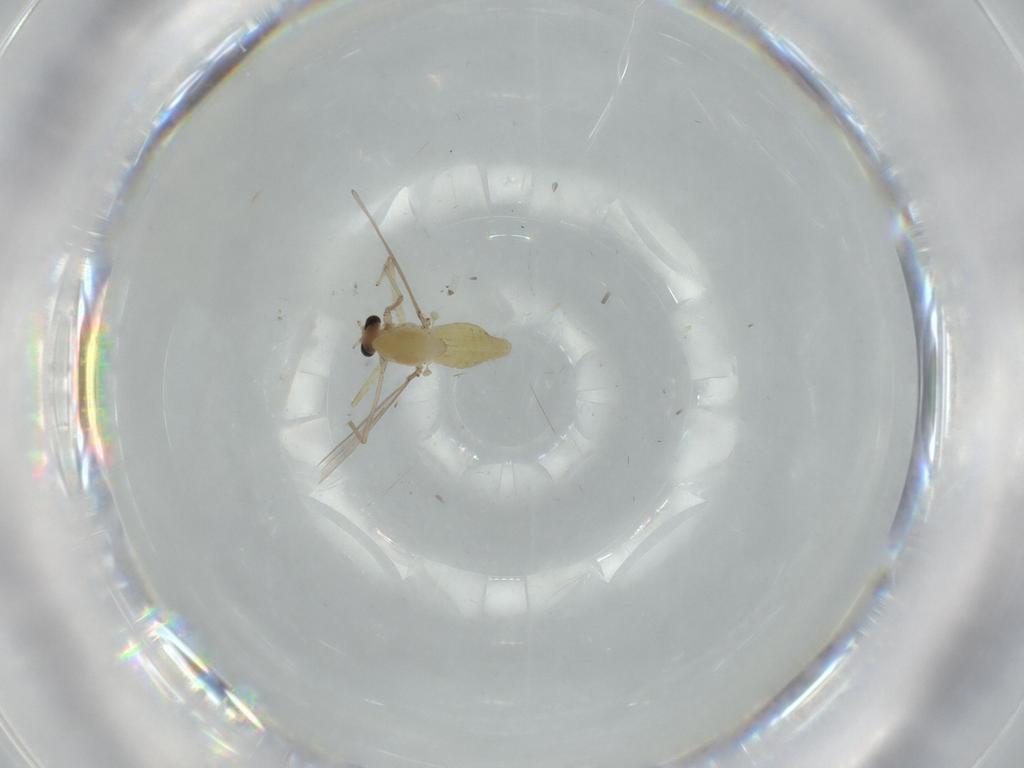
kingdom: Animalia
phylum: Arthropoda
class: Insecta
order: Diptera
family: Chironomidae
